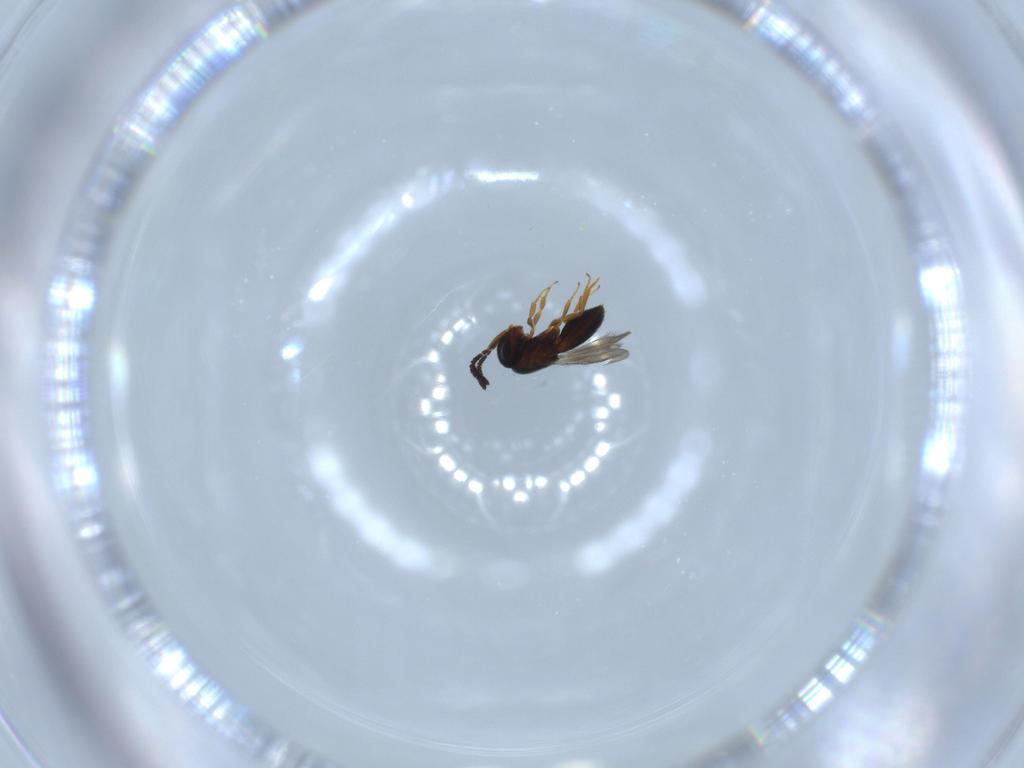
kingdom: Animalia
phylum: Arthropoda
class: Insecta
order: Hymenoptera
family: Scelionidae
